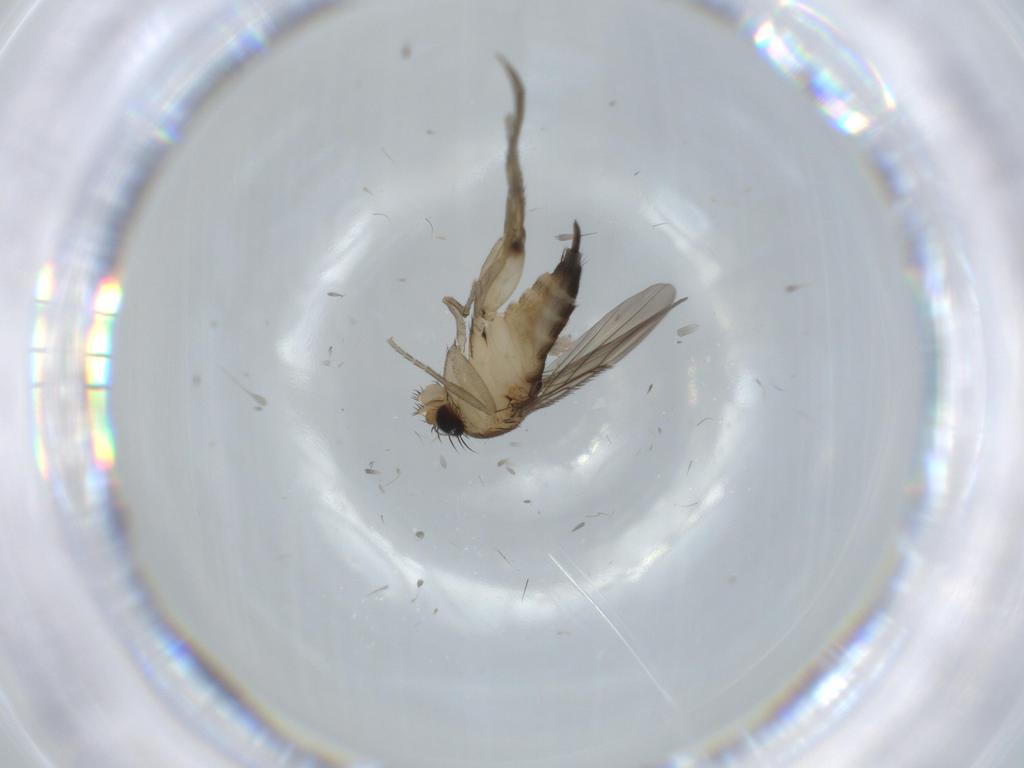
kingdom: Animalia
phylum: Arthropoda
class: Insecta
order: Diptera
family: Phoridae
